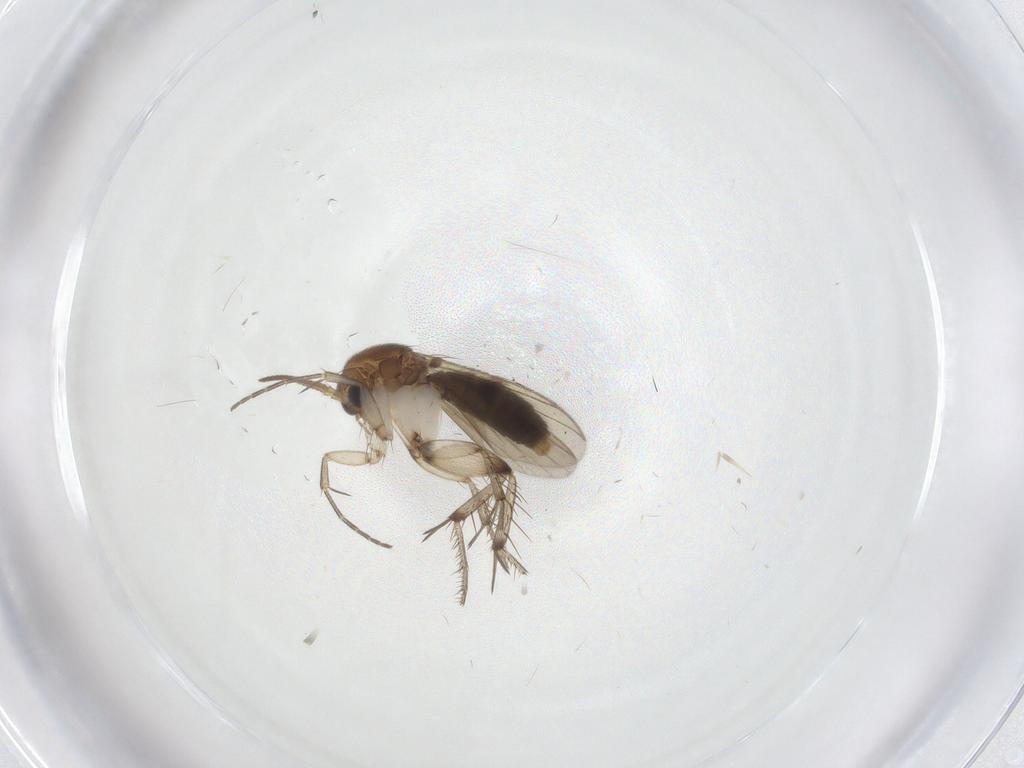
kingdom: Animalia
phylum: Arthropoda
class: Insecta
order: Diptera
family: Mycetophilidae
